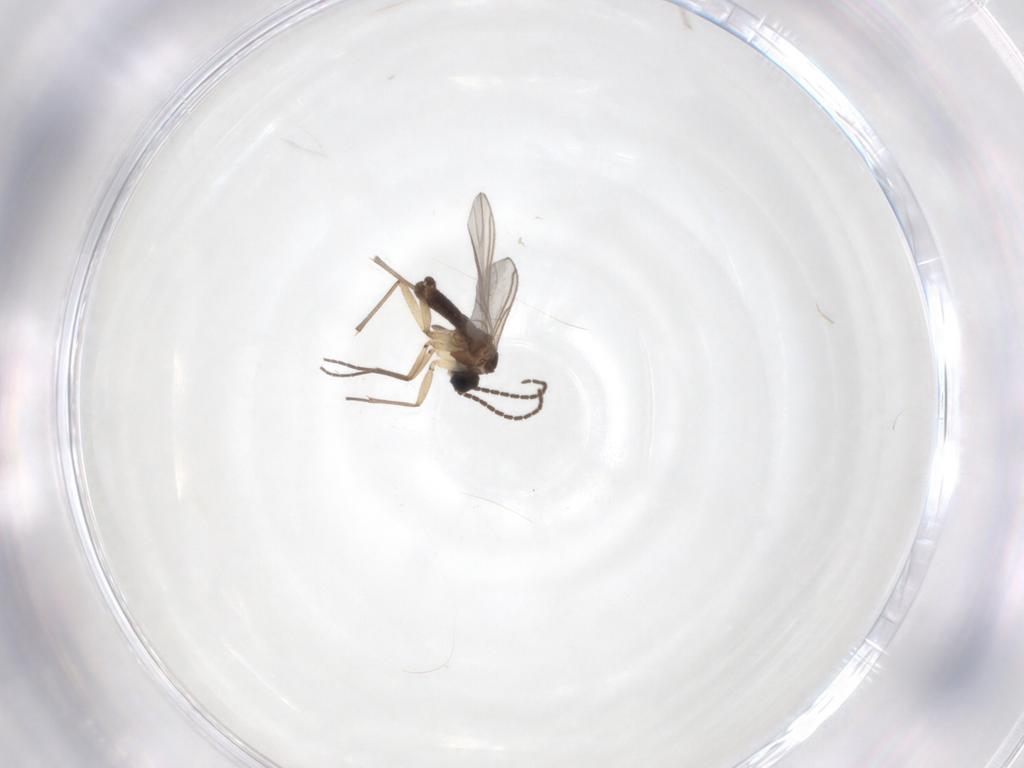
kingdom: Animalia
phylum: Arthropoda
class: Insecta
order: Diptera
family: Sciaridae
